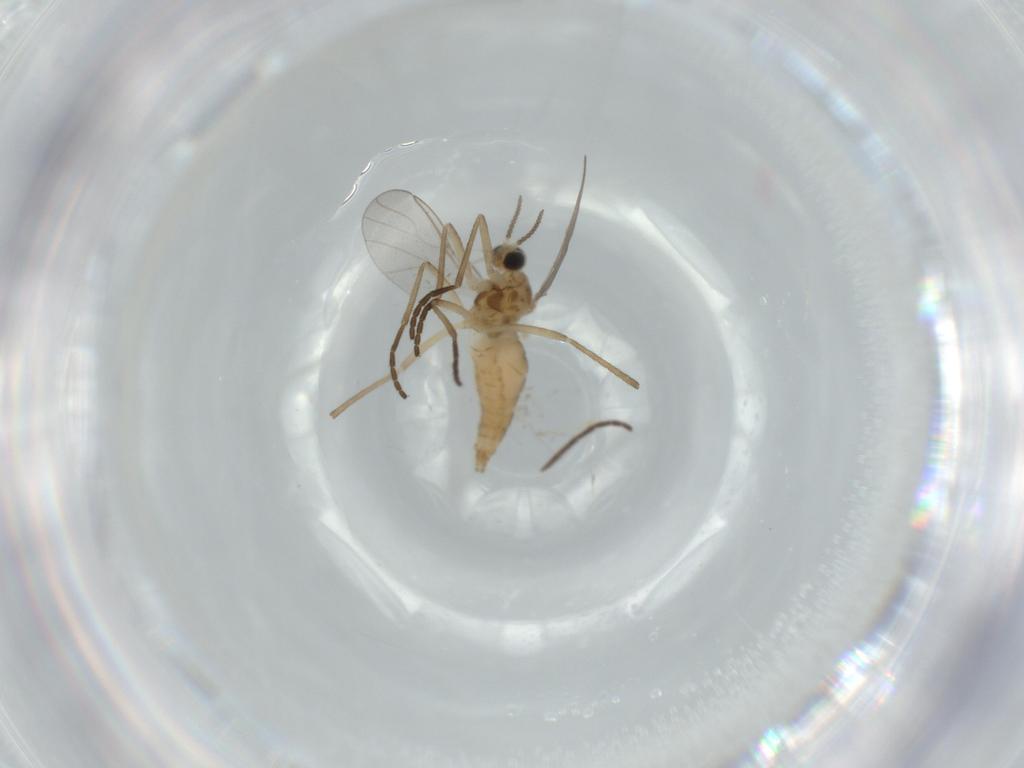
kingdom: Animalia
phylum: Arthropoda
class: Insecta
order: Diptera
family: Cecidomyiidae
